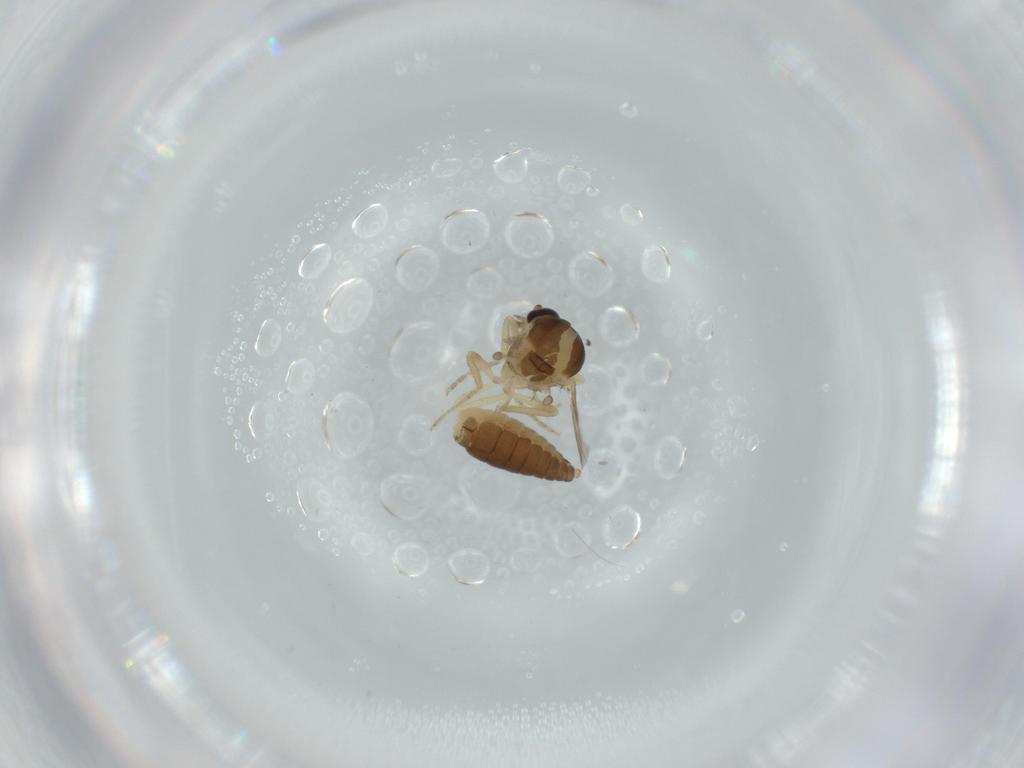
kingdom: Animalia
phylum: Arthropoda
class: Insecta
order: Diptera
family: Ceratopogonidae
